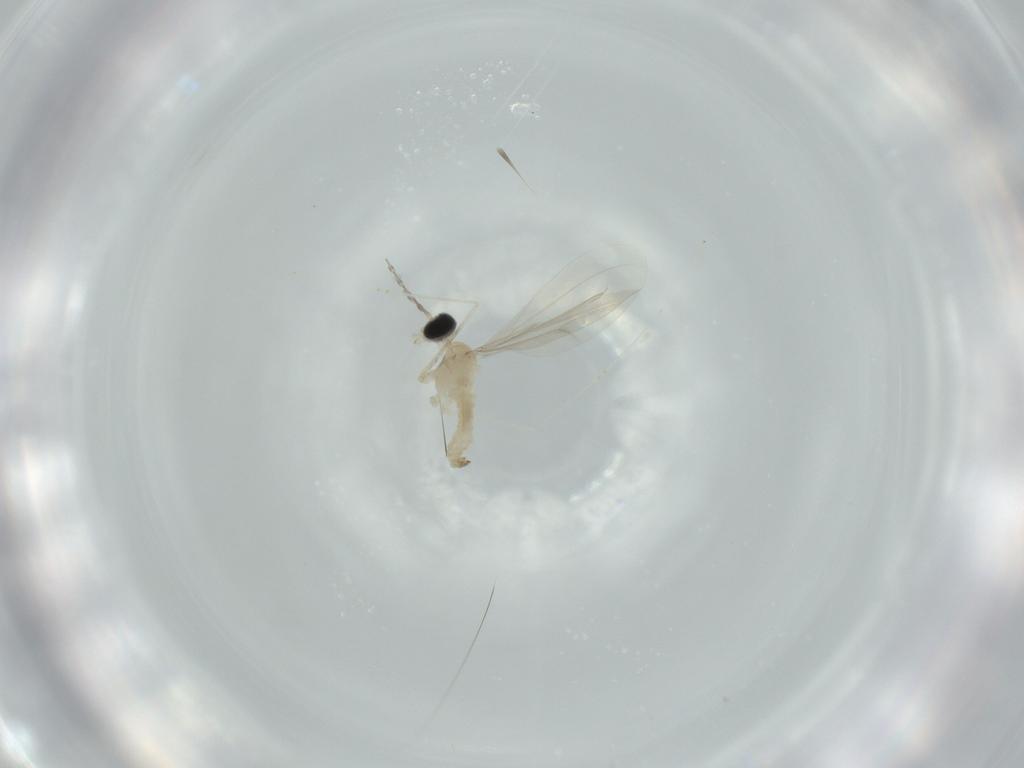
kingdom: Animalia
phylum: Arthropoda
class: Insecta
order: Diptera
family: Cecidomyiidae
